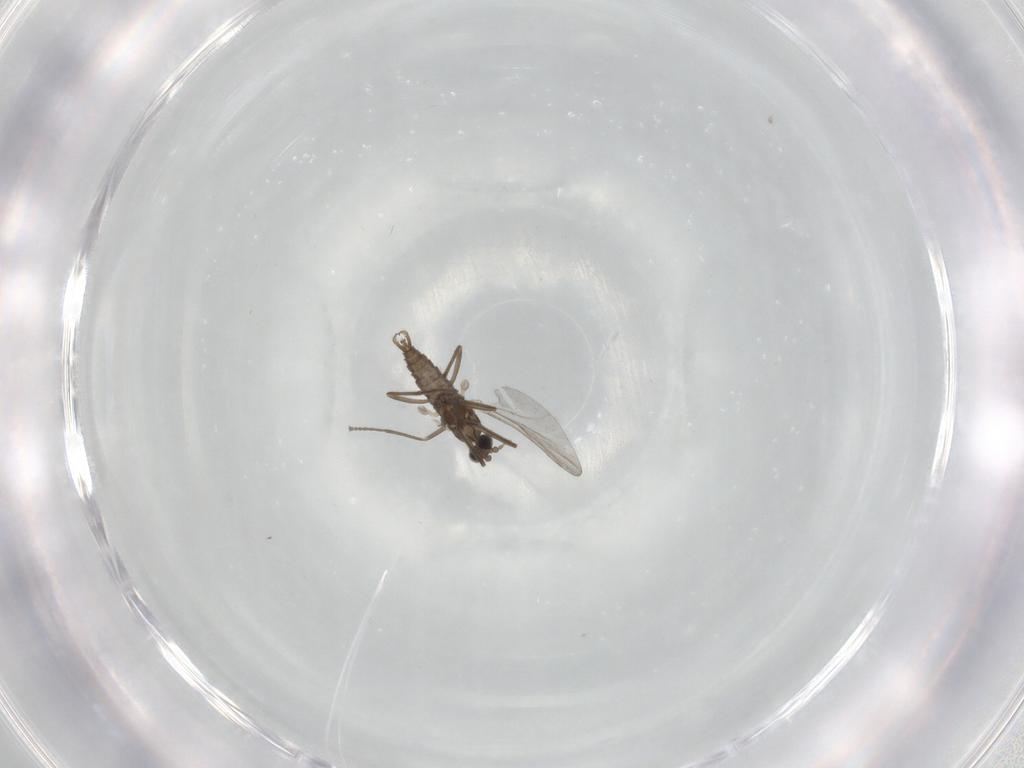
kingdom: Animalia
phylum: Arthropoda
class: Insecta
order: Diptera
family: Cecidomyiidae
